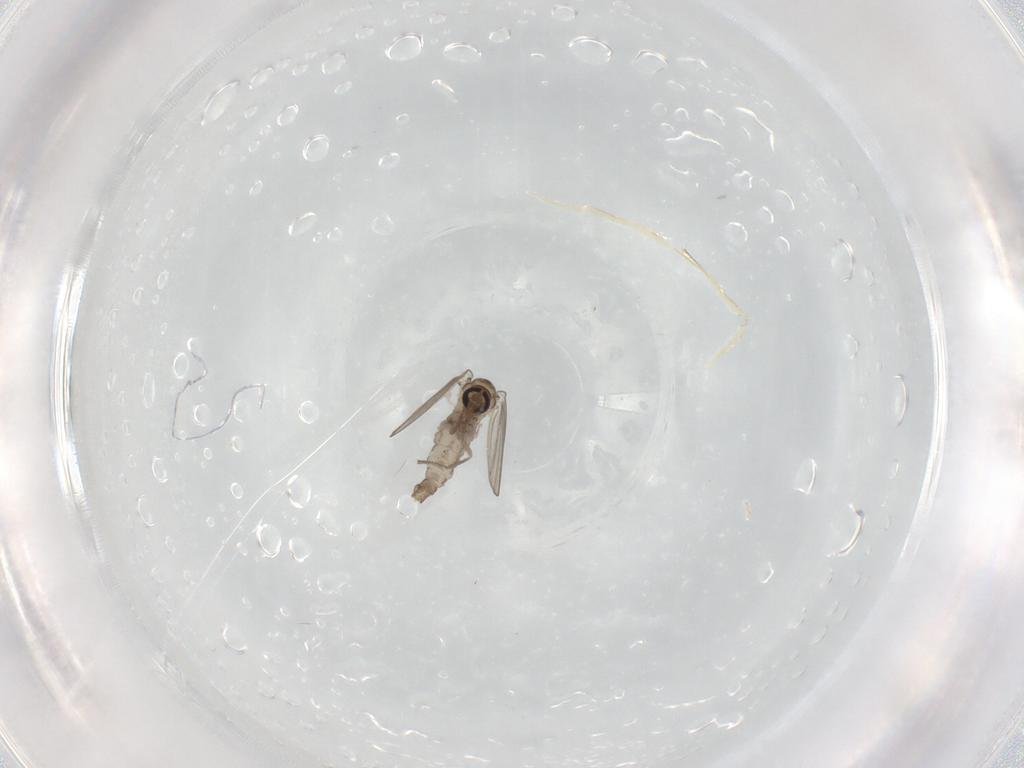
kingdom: Animalia
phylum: Arthropoda
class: Insecta
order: Diptera
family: Psychodidae
